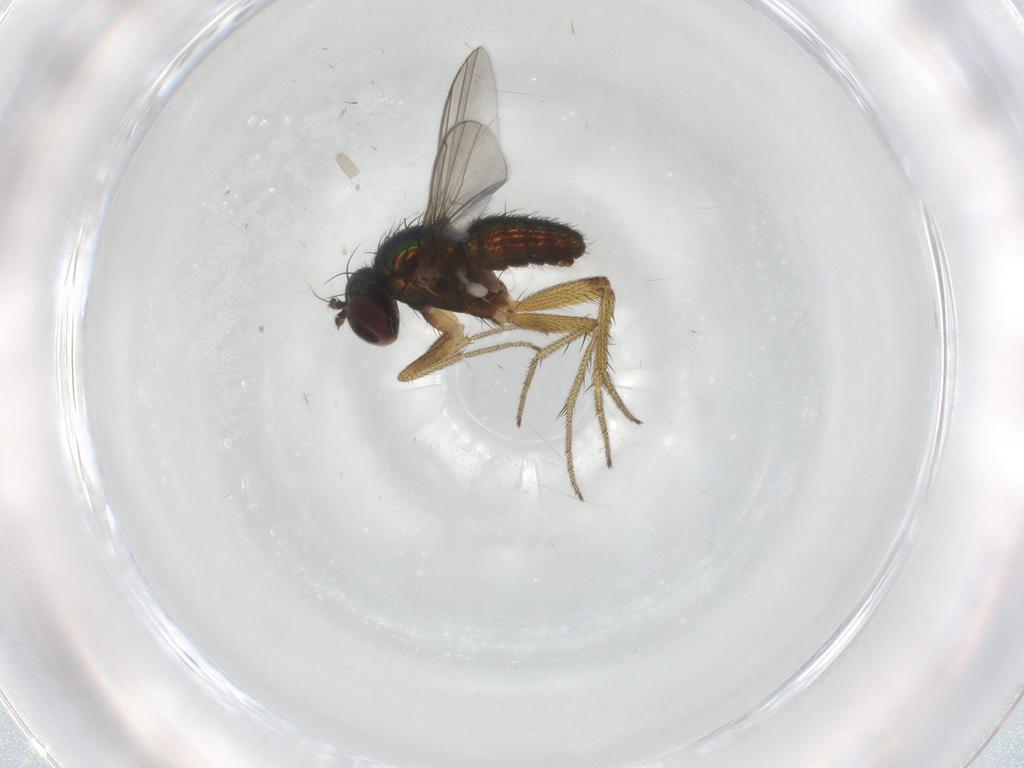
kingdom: Animalia
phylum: Arthropoda
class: Insecta
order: Diptera
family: Dolichopodidae
